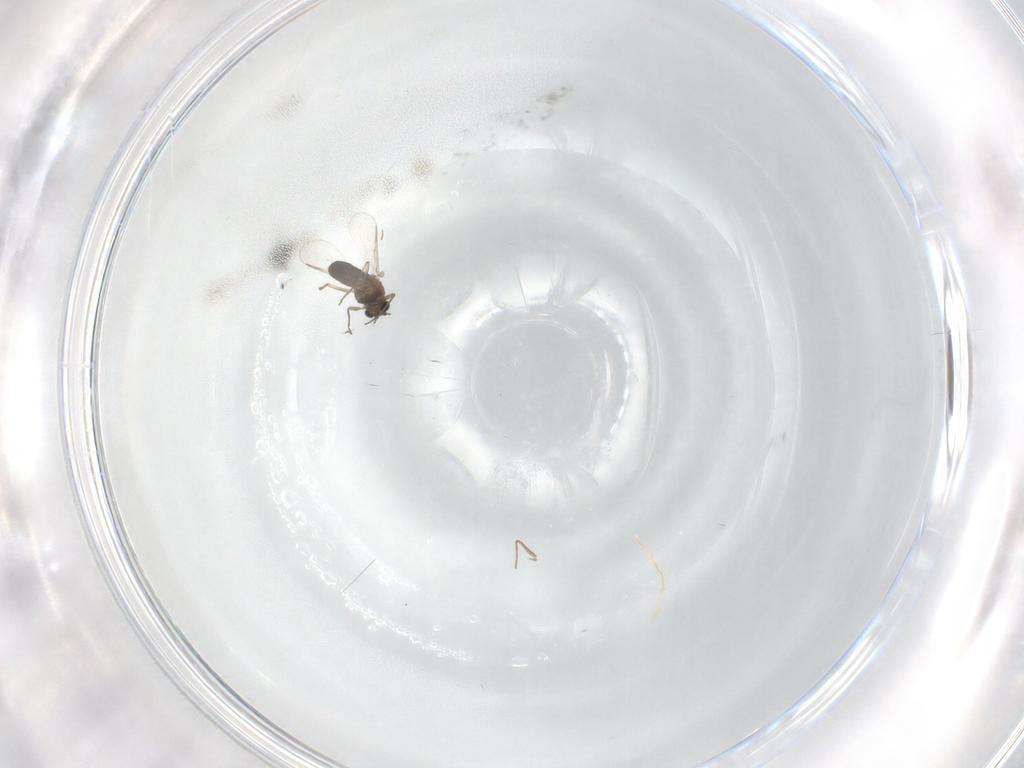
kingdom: Animalia
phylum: Arthropoda
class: Insecta
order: Diptera
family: Chironomidae
